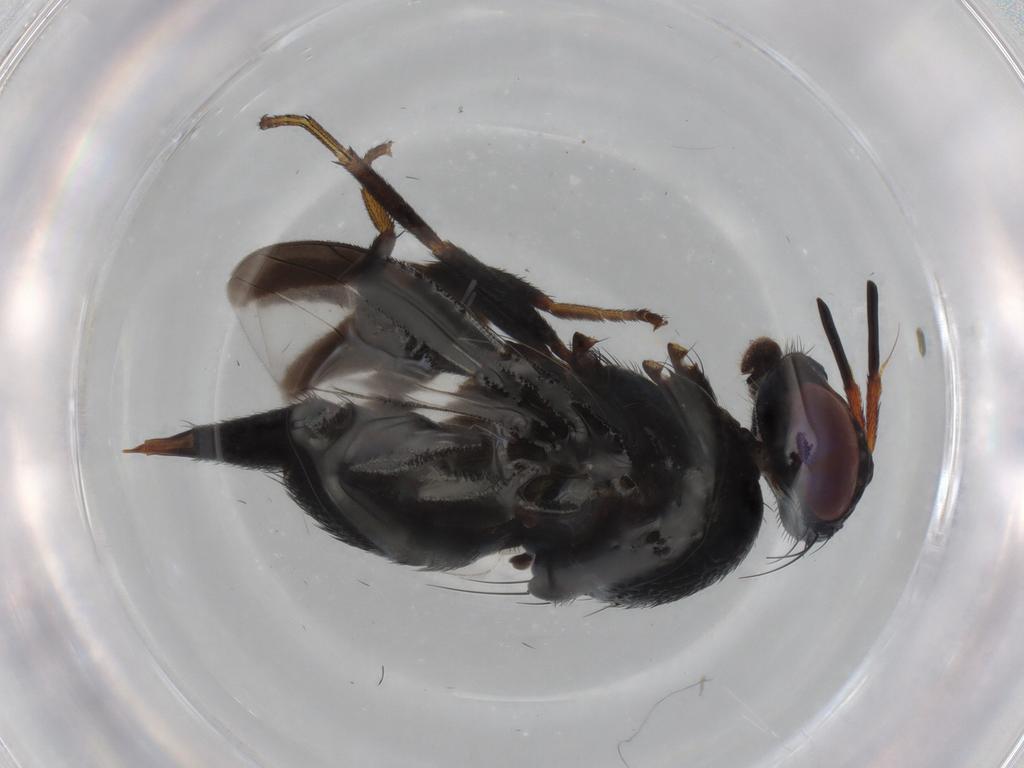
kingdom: Animalia
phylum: Arthropoda
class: Insecta
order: Diptera
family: Tephritidae
